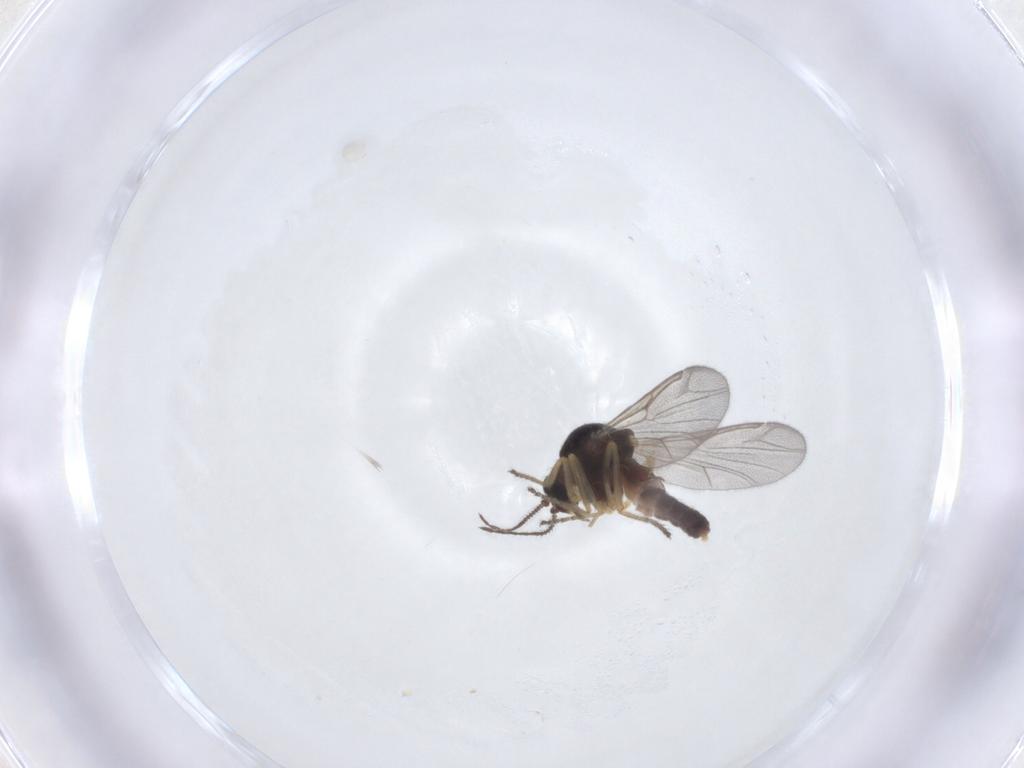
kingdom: Animalia
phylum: Arthropoda
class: Insecta
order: Diptera
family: Ceratopogonidae
